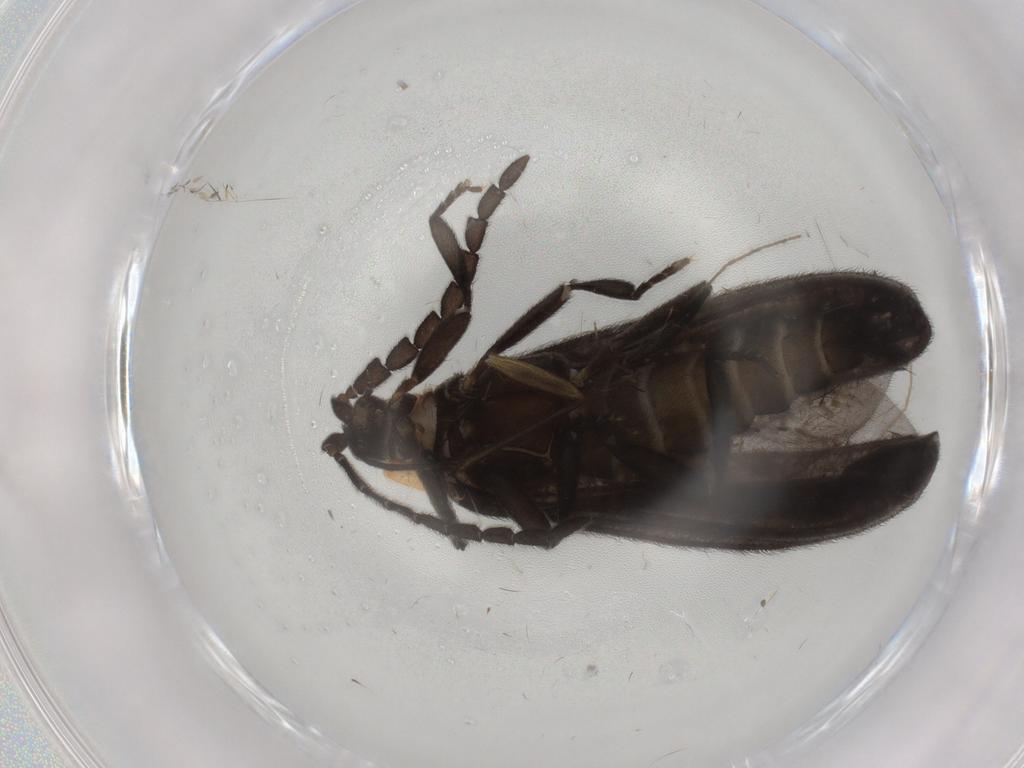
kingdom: Animalia
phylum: Arthropoda
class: Insecta
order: Coleoptera
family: Lycidae
